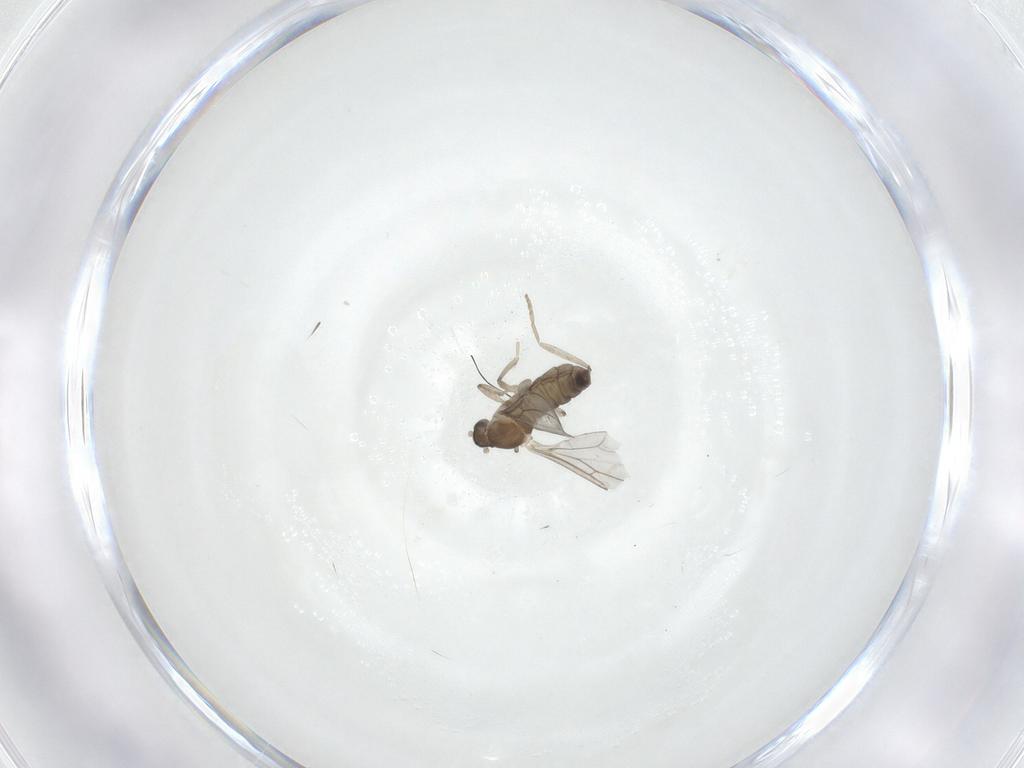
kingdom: Animalia
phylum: Arthropoda
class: Insecta
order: Diptera
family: Cecidomyiidae
